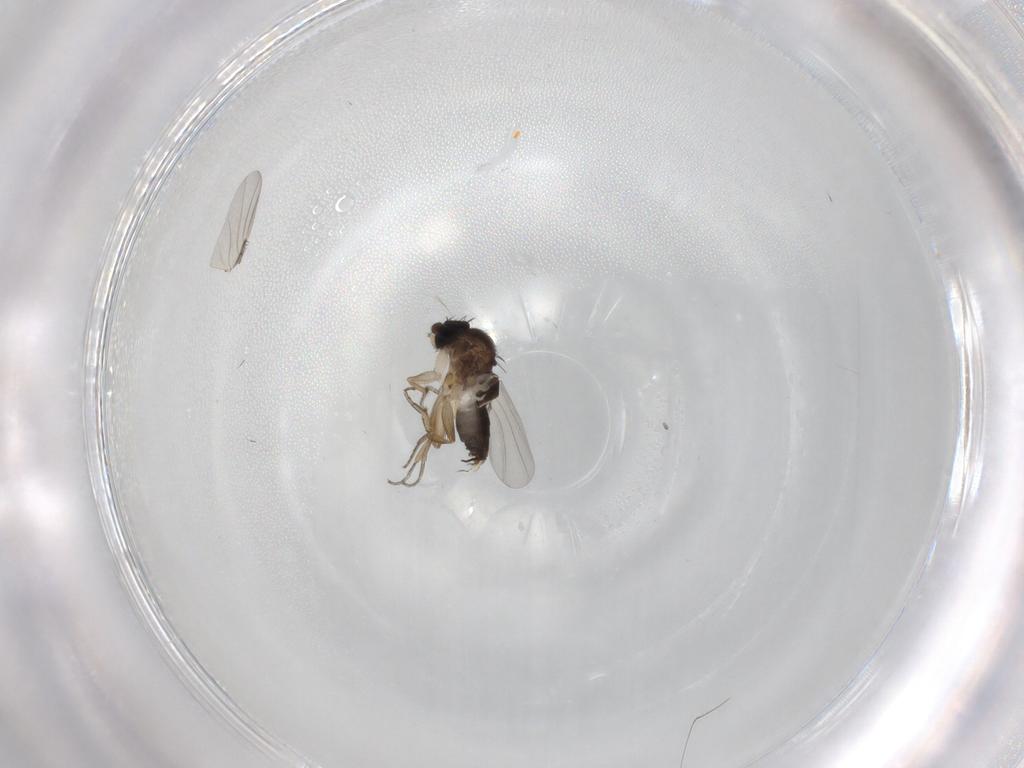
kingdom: Animalia
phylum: Arthropoda
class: Insecta
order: Diptera
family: Phoridae
